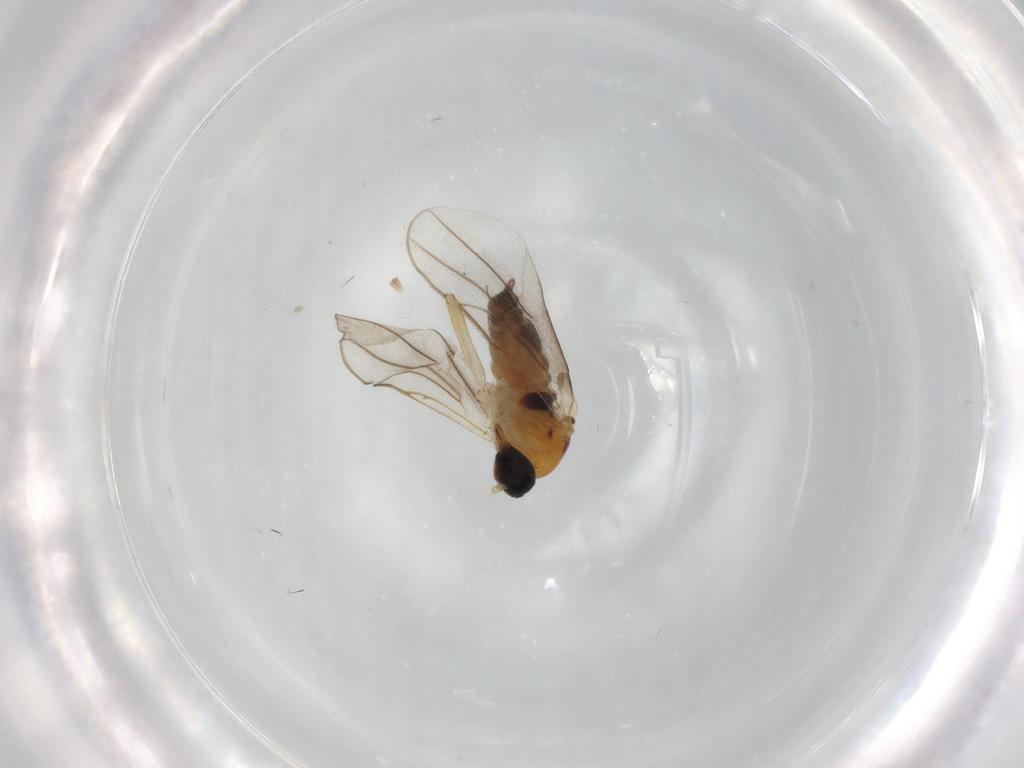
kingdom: Animalia
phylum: Arthropoda
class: Insecta
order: Diptera
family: Hybotidae
